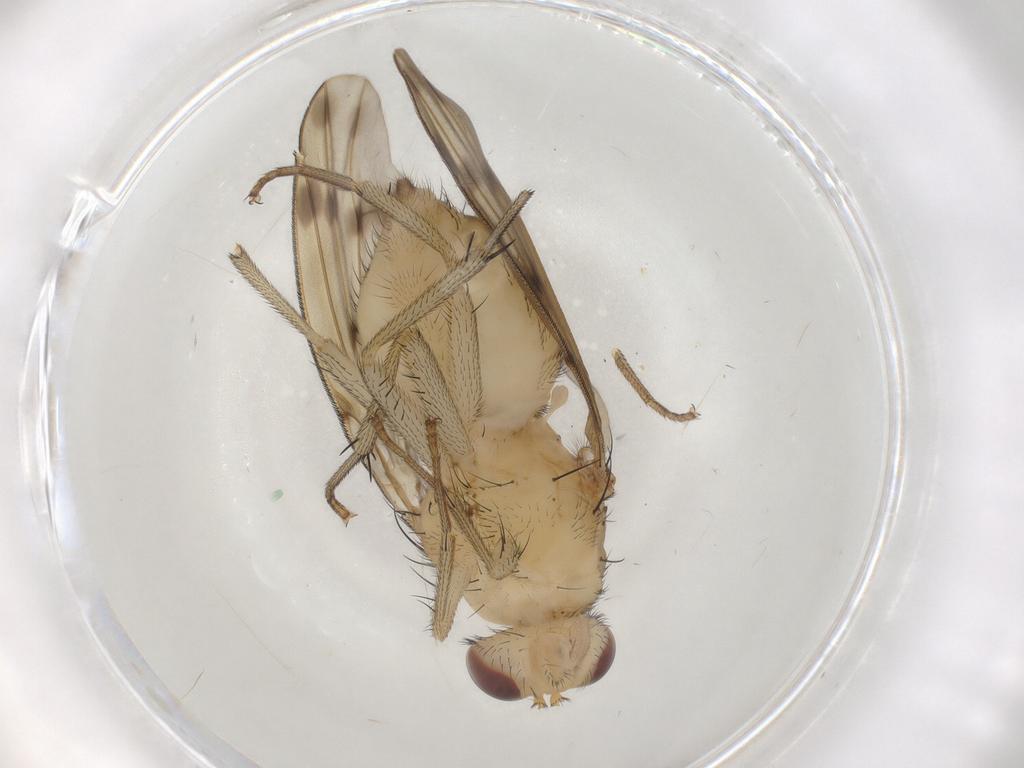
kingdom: Animalia
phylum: Arthropoda
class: Insecta
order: Diptera
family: Lauxaniidae
